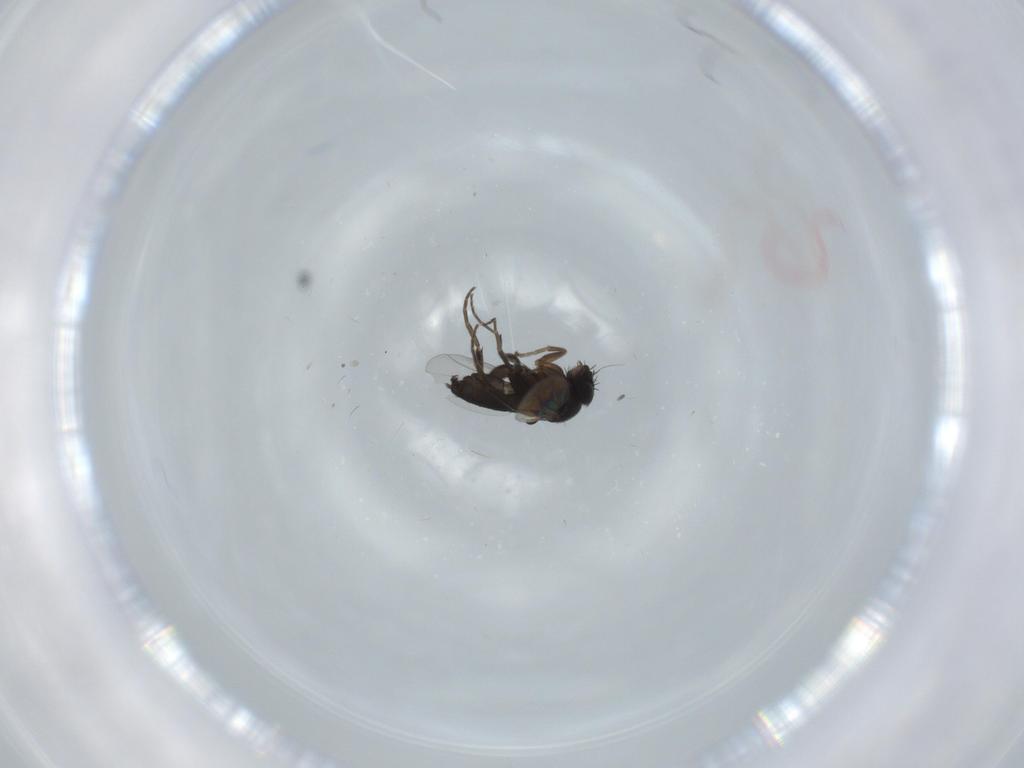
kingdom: Animalia
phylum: Arthropoda
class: Insecta
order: Diptera
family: Phoridae
